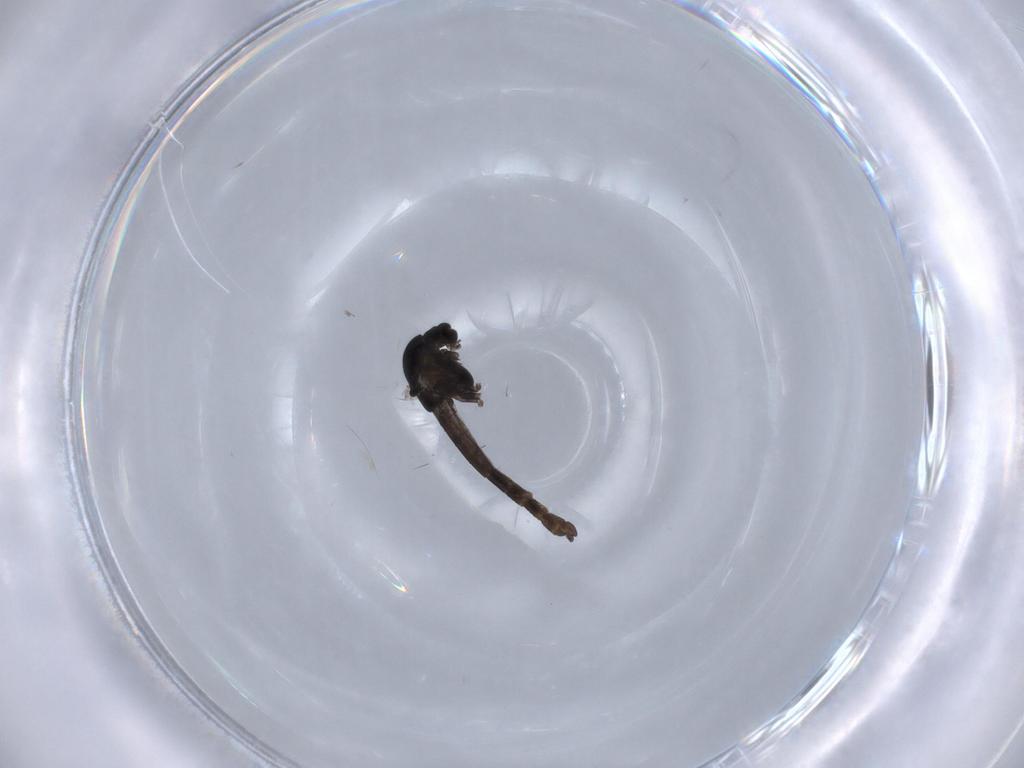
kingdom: Animalia
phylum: Arthropoda
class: Insecta
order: Diptera
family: Chironomidae
